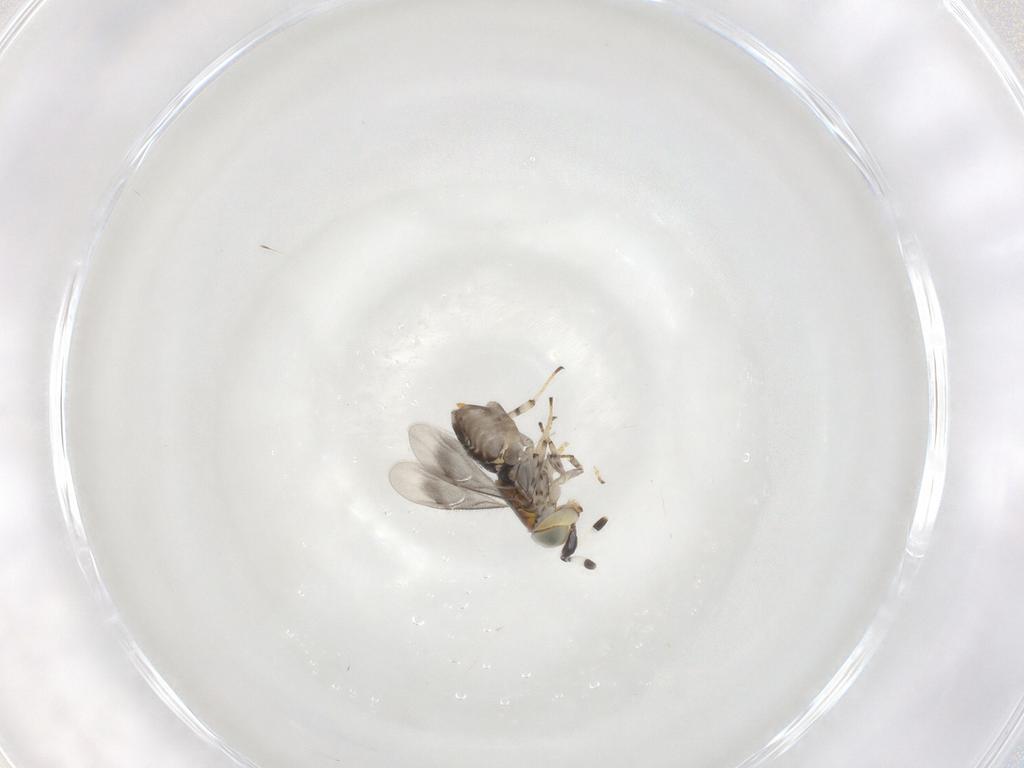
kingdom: Animalia
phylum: Arthropoda
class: Insecta
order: Hymenoptera
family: Encyrtidae
